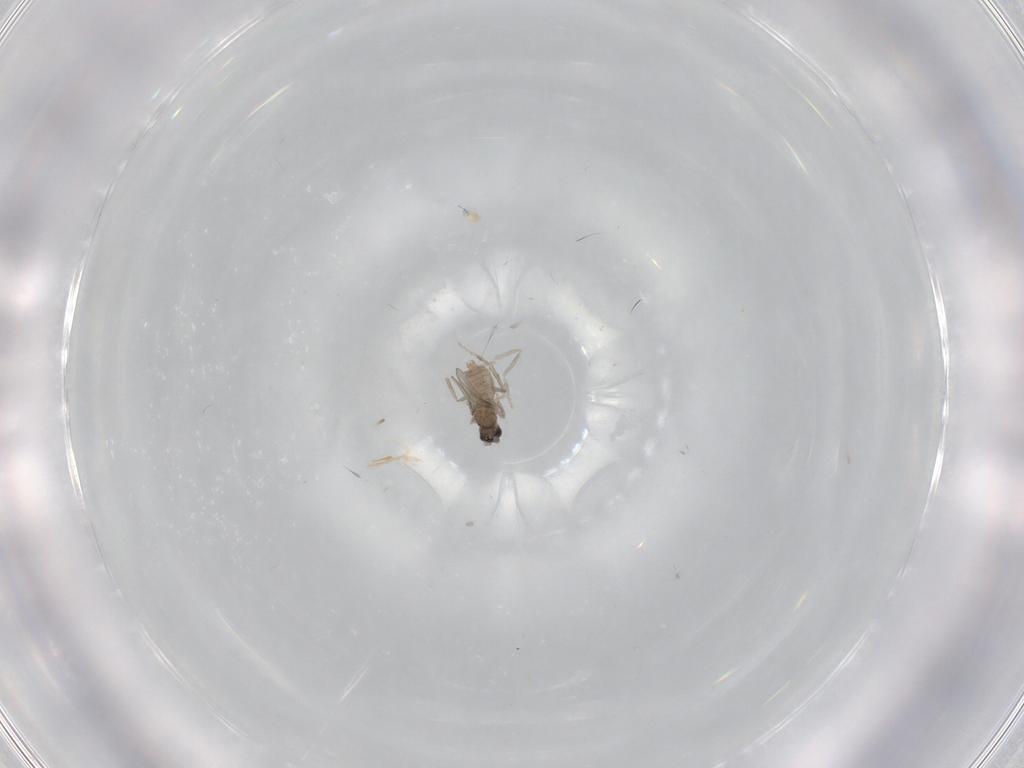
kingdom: Animalia
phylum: Arthropoda
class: Insecta
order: Diptera
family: Cecidomyiidae
